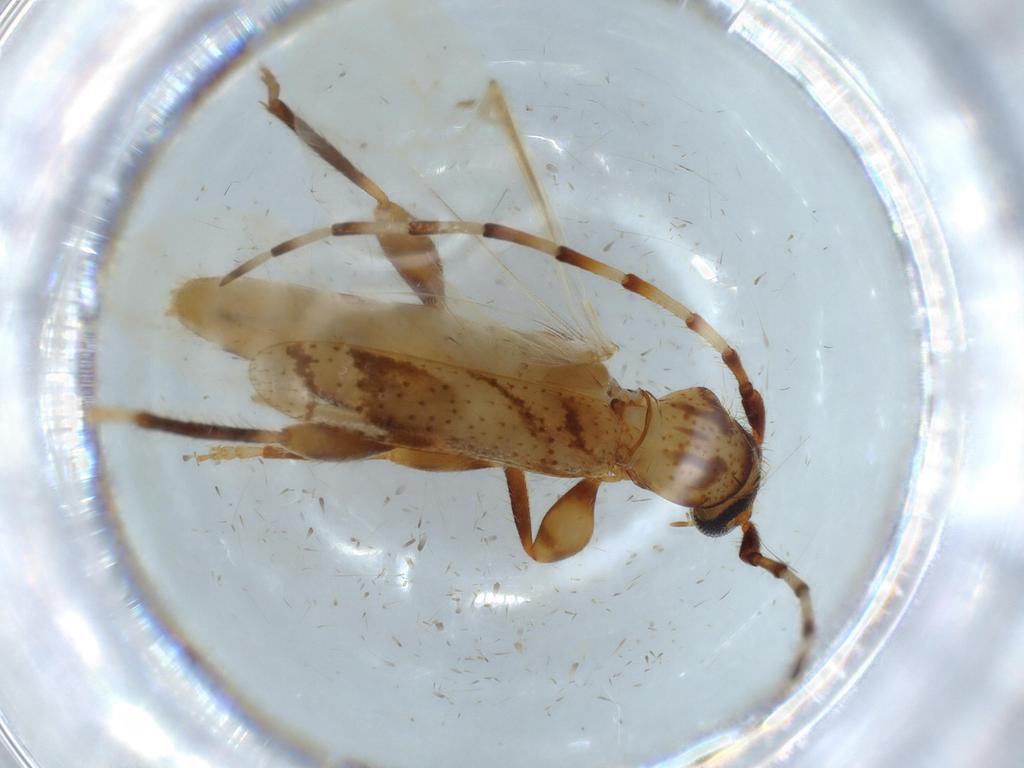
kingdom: Animalia
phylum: Arthropoda
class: Insecta
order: Coleoptera
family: Cerambycidae
